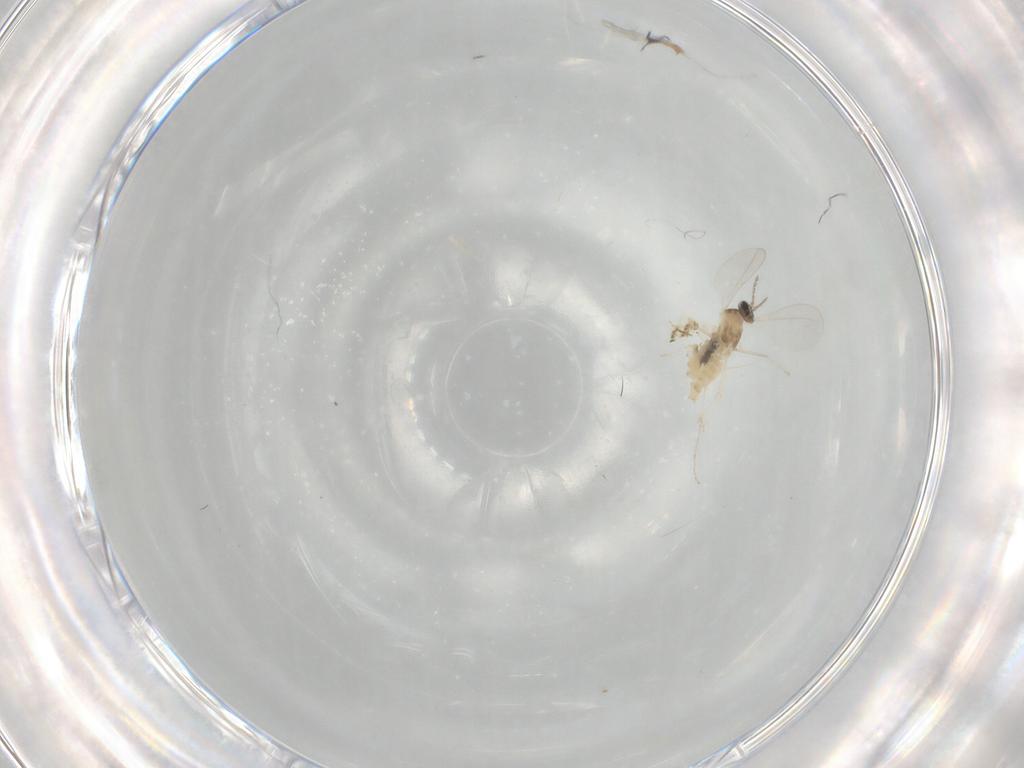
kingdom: Animalia
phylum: Arthropoda
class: Insecta
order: Diptera
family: Cecidomyiidae
